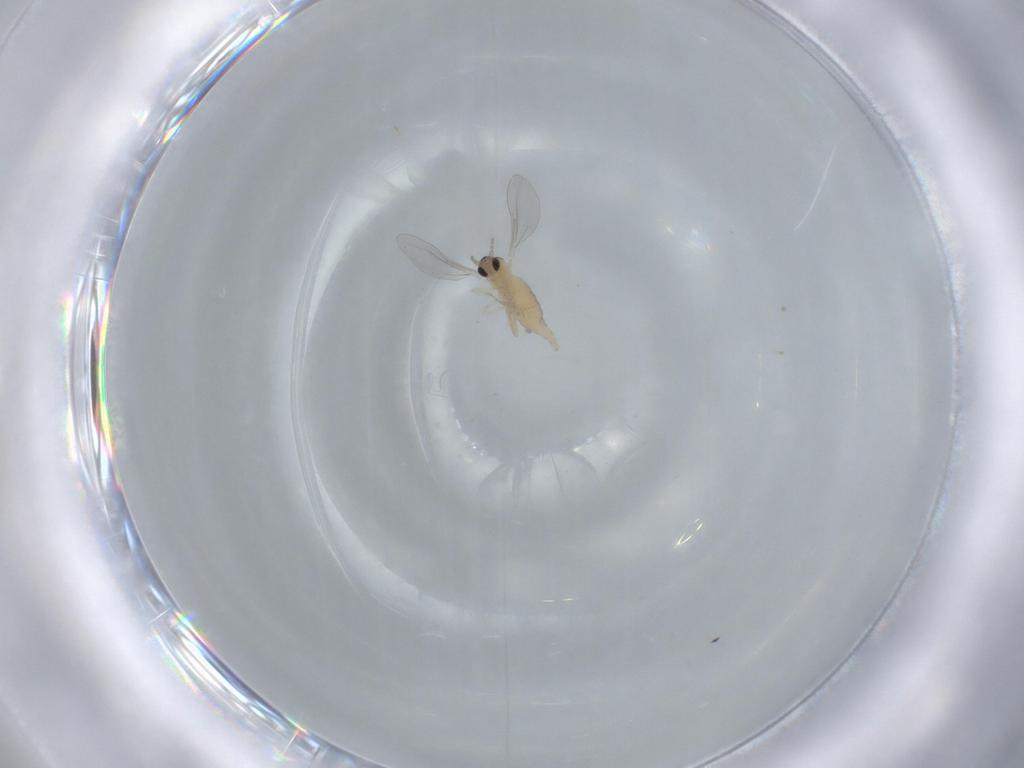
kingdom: Animalia
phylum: Arthropoda
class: Insecta
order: Diptera
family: Cecidomyiidae
